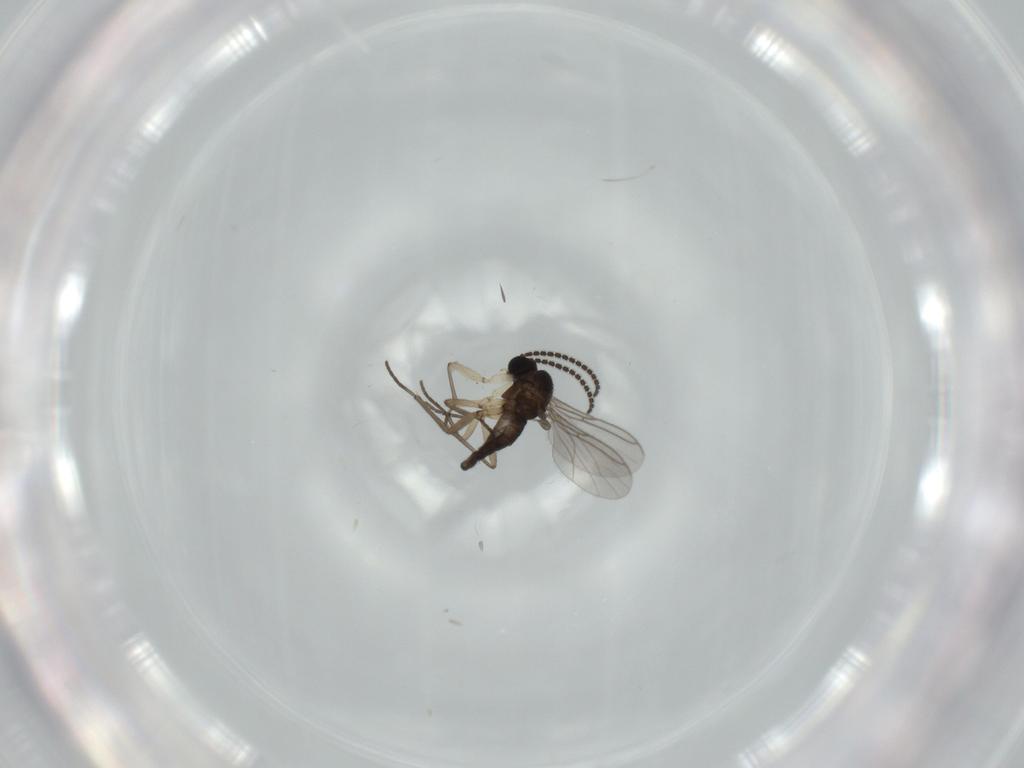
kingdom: Animalia
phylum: Arthropoda
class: Insecta
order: Diptera
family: Sciaridae
